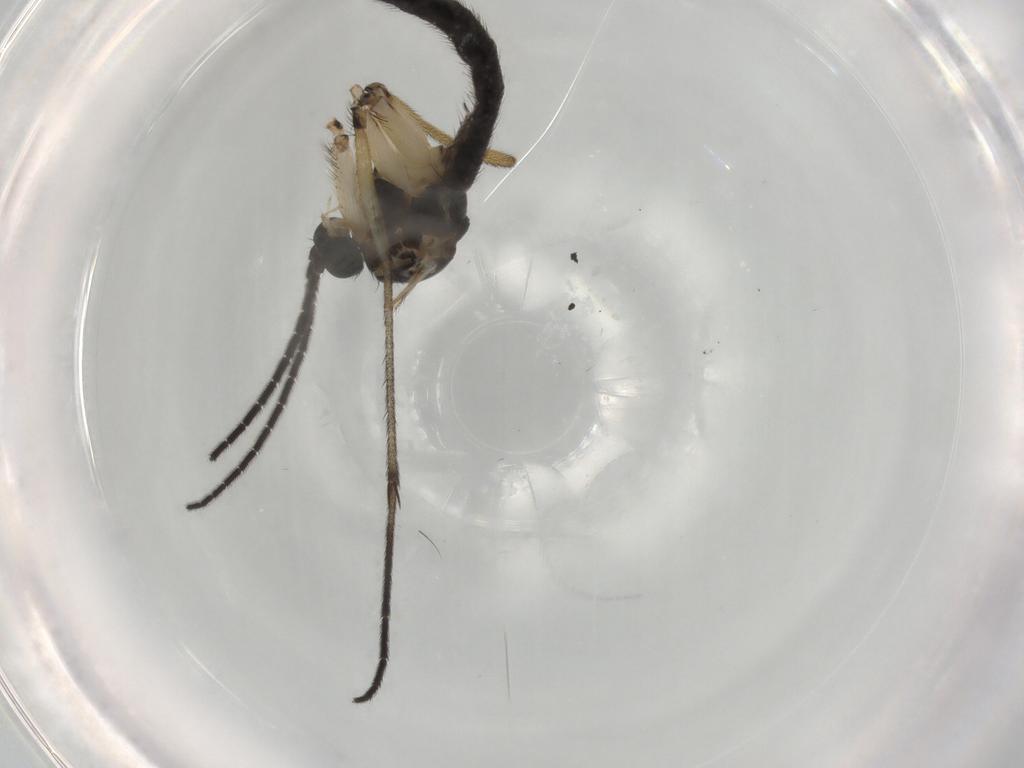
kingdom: Animalia
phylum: Arthropoda
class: Insecta
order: Diptera
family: Sciaridae
